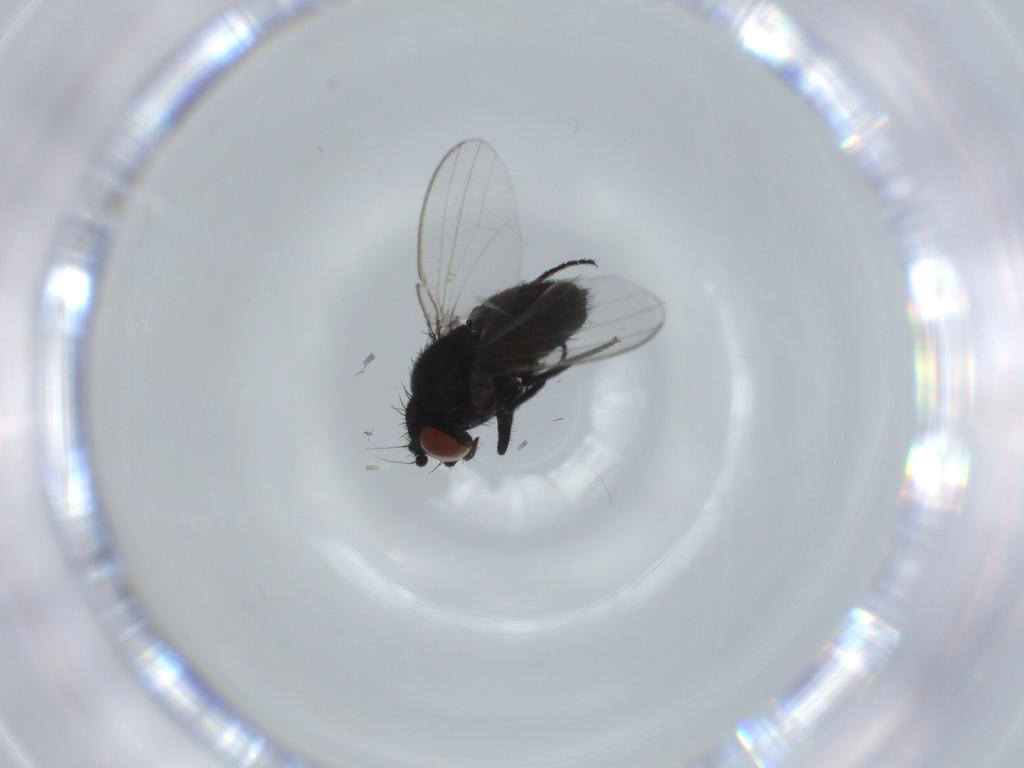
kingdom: Animalia
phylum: Arthropoda
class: Insecta
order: Diptera
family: Milichiidae
